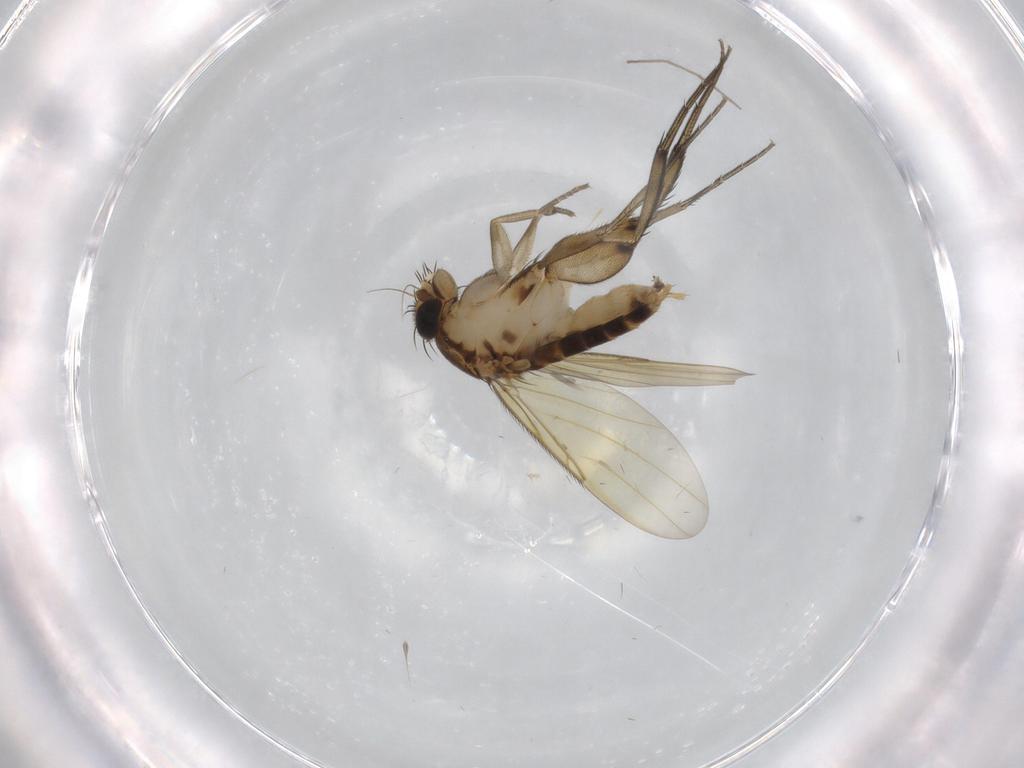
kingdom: Animalia
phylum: Arthropoda
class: Insecta
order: Diptera
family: Phoridae
